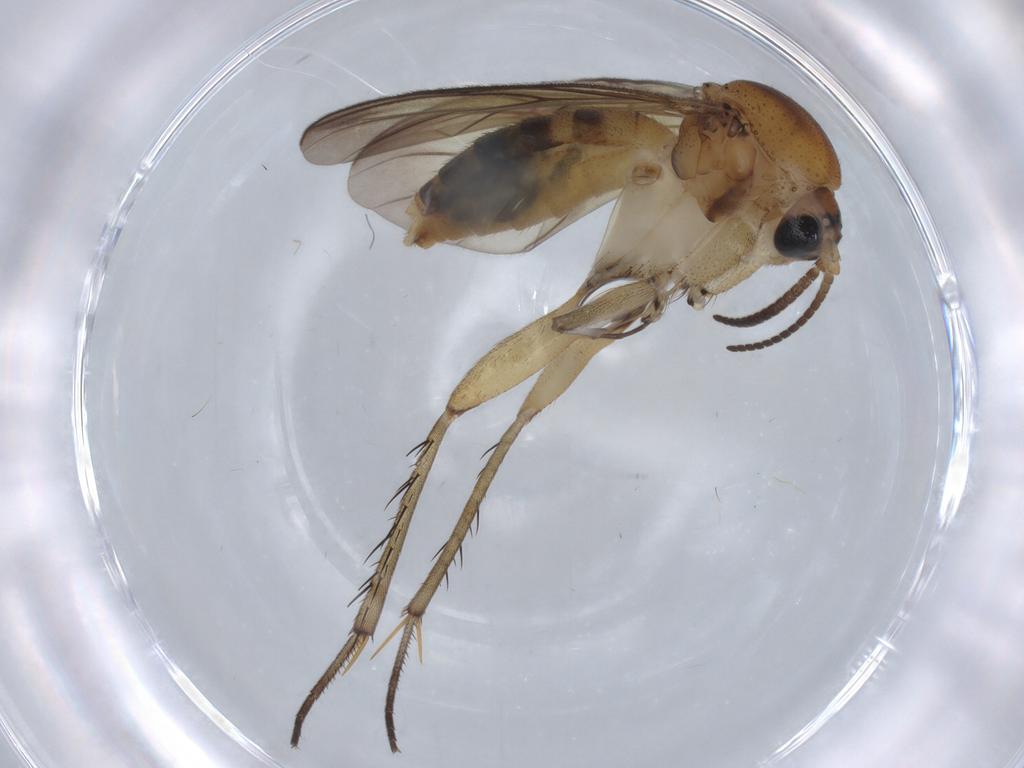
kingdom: Animalia
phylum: Arthropoda
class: Insecta
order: Diptera
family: Mycetophilidae
